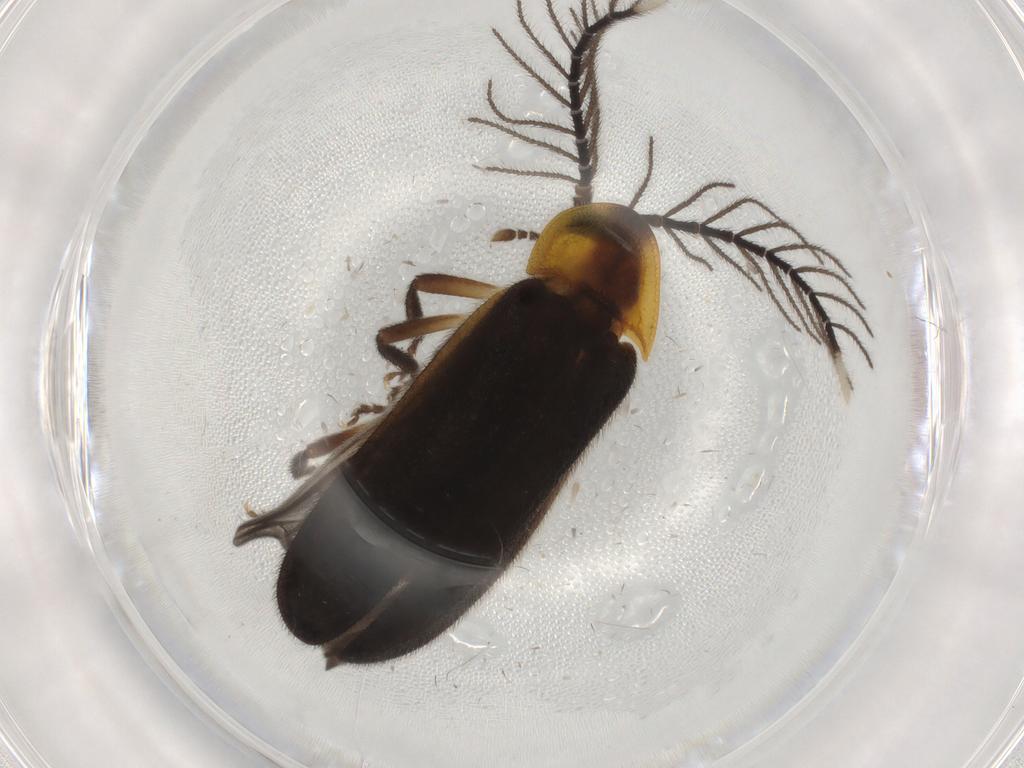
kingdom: Animalia
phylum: Arthropoda
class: Insecta
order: Coleoptera
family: Lampyridae
